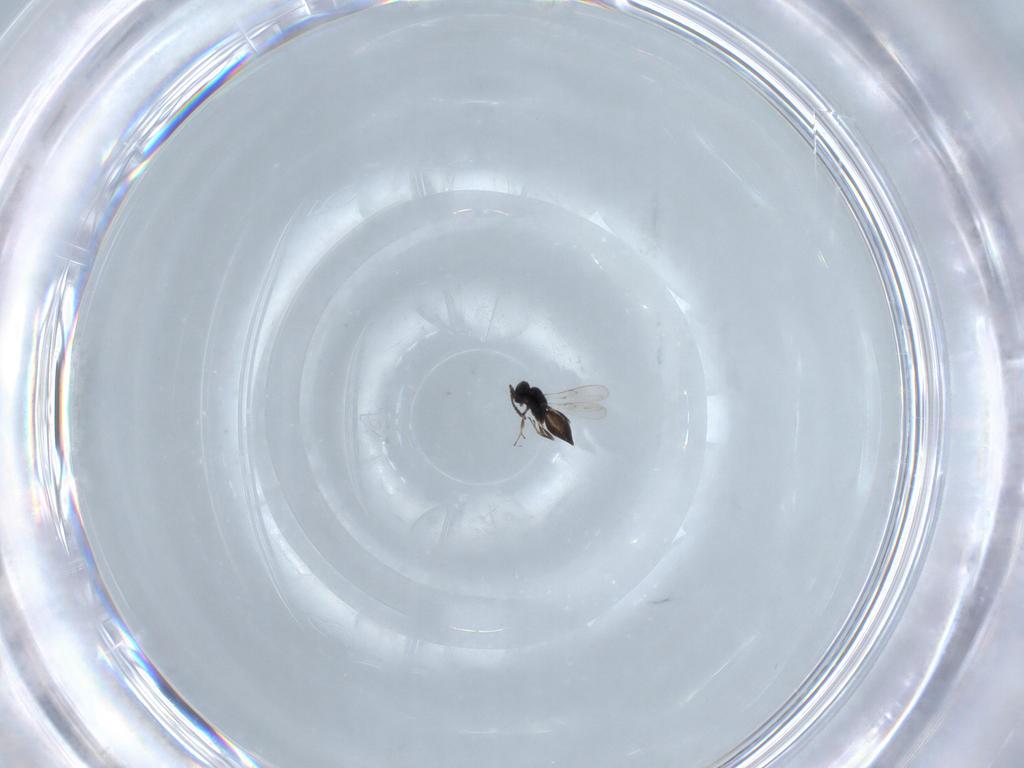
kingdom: Animalia
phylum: Arthropoda
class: Insecta
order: Hymenoptera
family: Scelionidae
